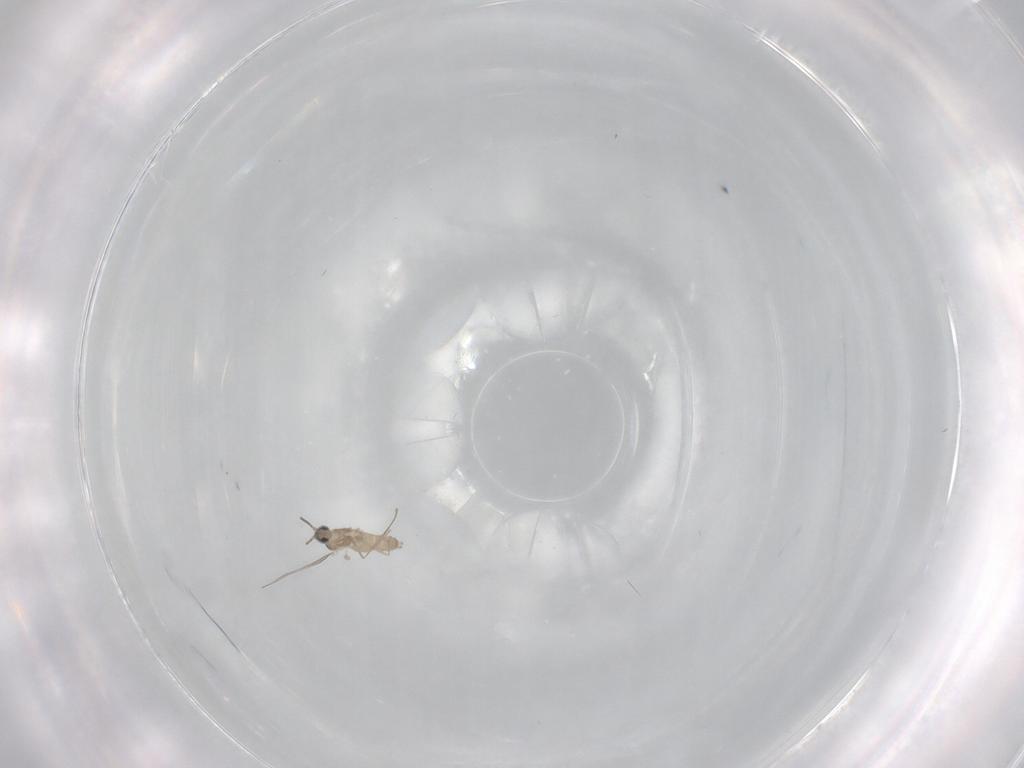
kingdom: Animalia
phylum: Arthropoda
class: Insecta
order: Diptera
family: Cecidomyiidae
